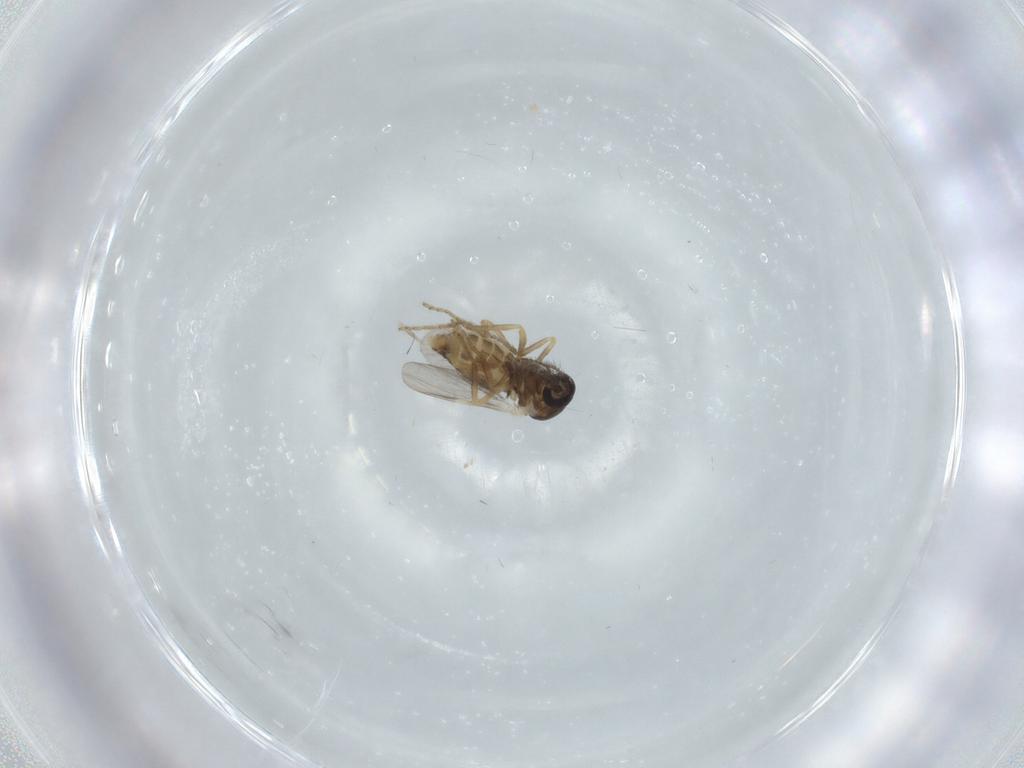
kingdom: Animalia
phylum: Arthropoda
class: Insecta
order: Diptera
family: Ceratopogonidae
